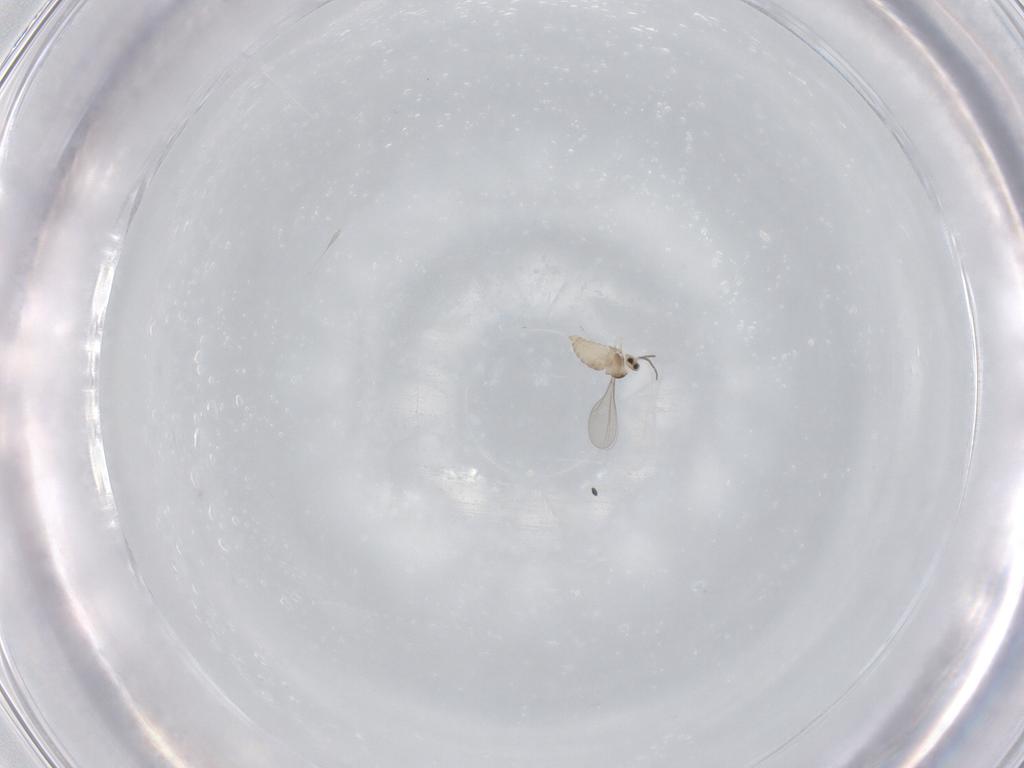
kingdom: Animalia
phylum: Arthropoda
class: Insecta
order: Diptera
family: Cecidomyiidae
